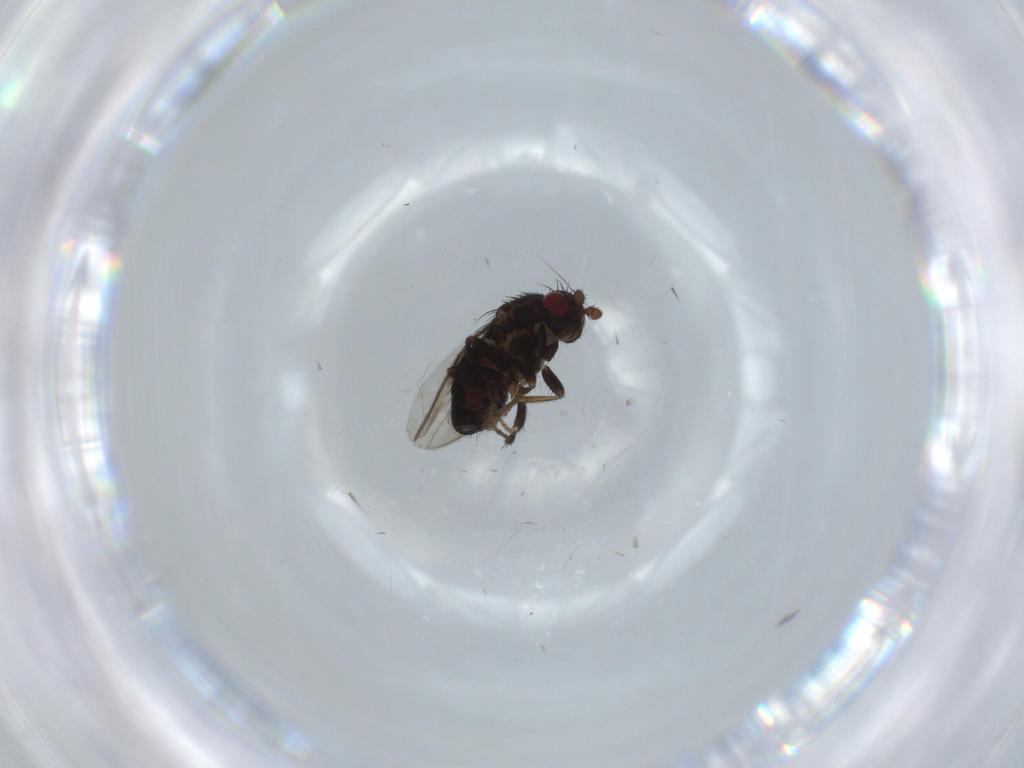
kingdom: Animalia
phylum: Arthropoda
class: Insecta
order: Diptera
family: Sphaeroceridae
